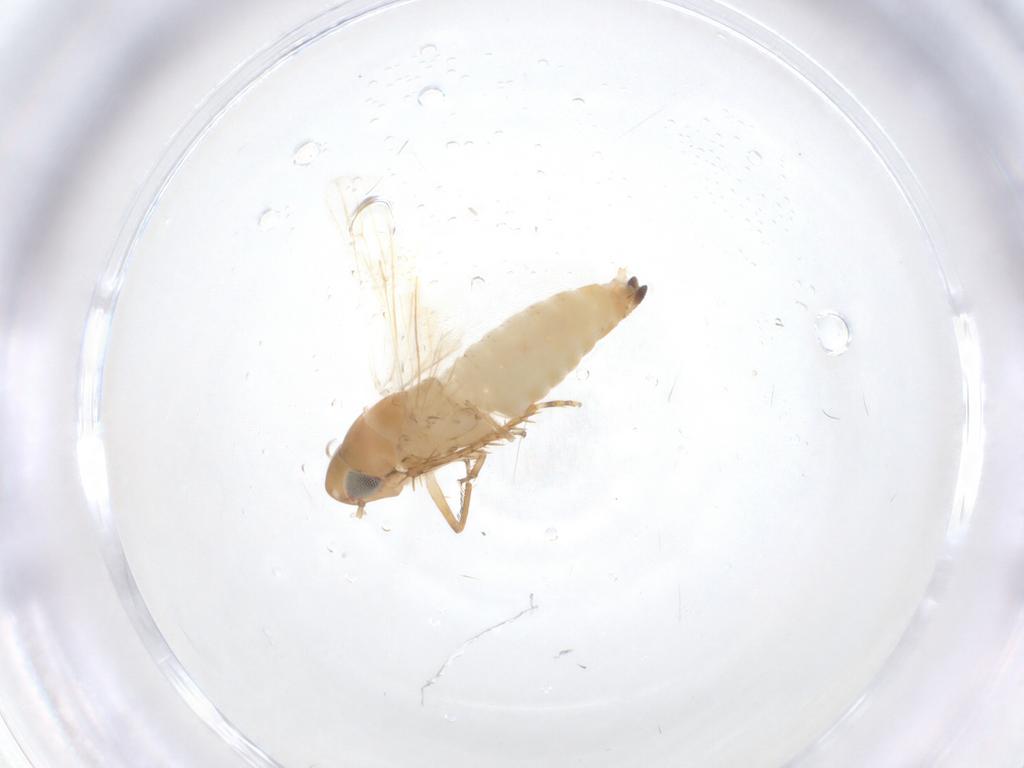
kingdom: Animalia
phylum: Arthropoda
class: Insecta
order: Hemiptera
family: Cicadellidae
